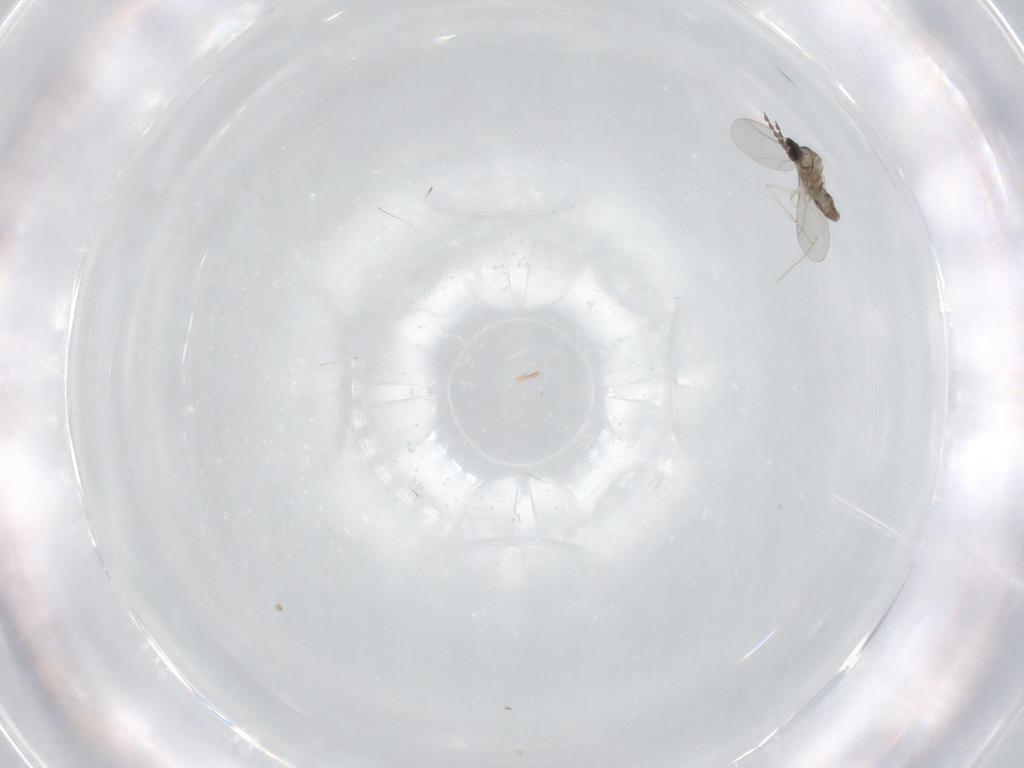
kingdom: Animalia
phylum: Arthropoda
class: Insecta
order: Diptera
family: Cecidomyiidae
